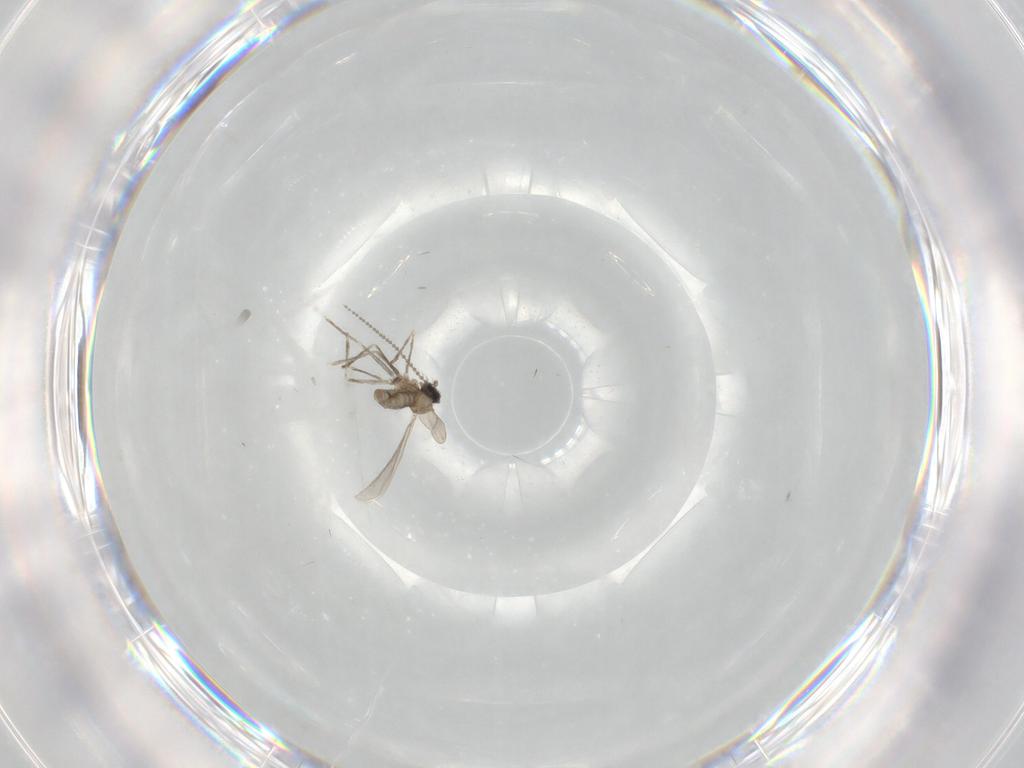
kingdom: Animalia
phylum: Arthropoda
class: Insecta
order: Diptera
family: Cecidomyiidae
